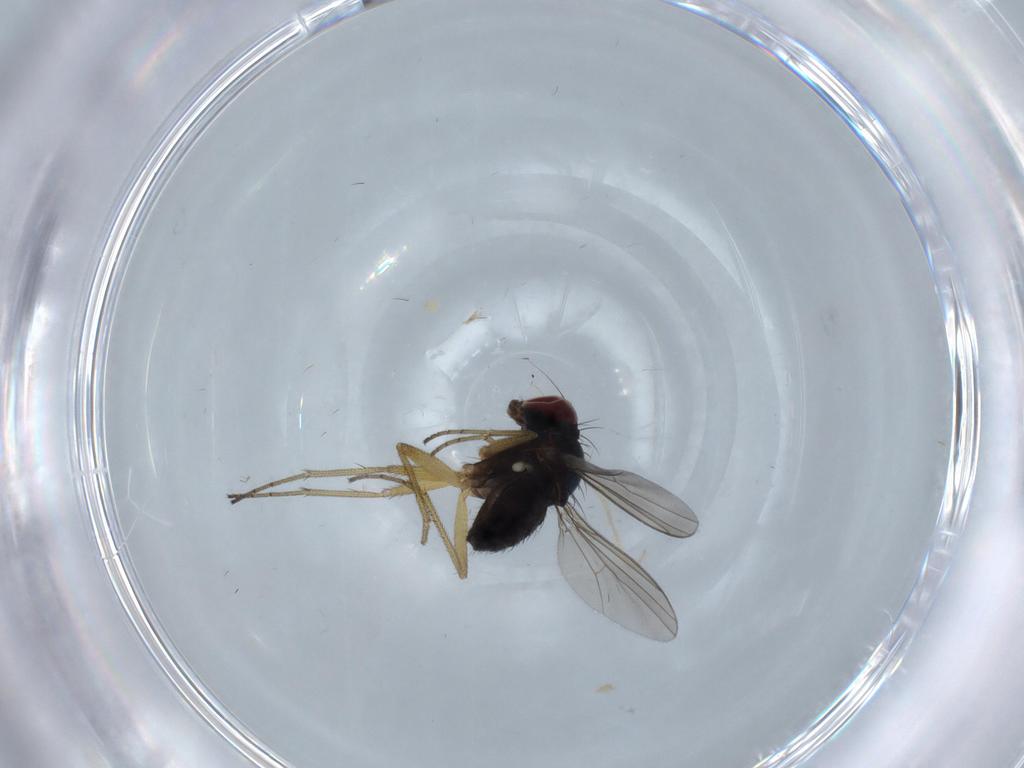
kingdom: Animalia
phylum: Arthropoda
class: Insecta
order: Diptera
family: Dolichopodidae
